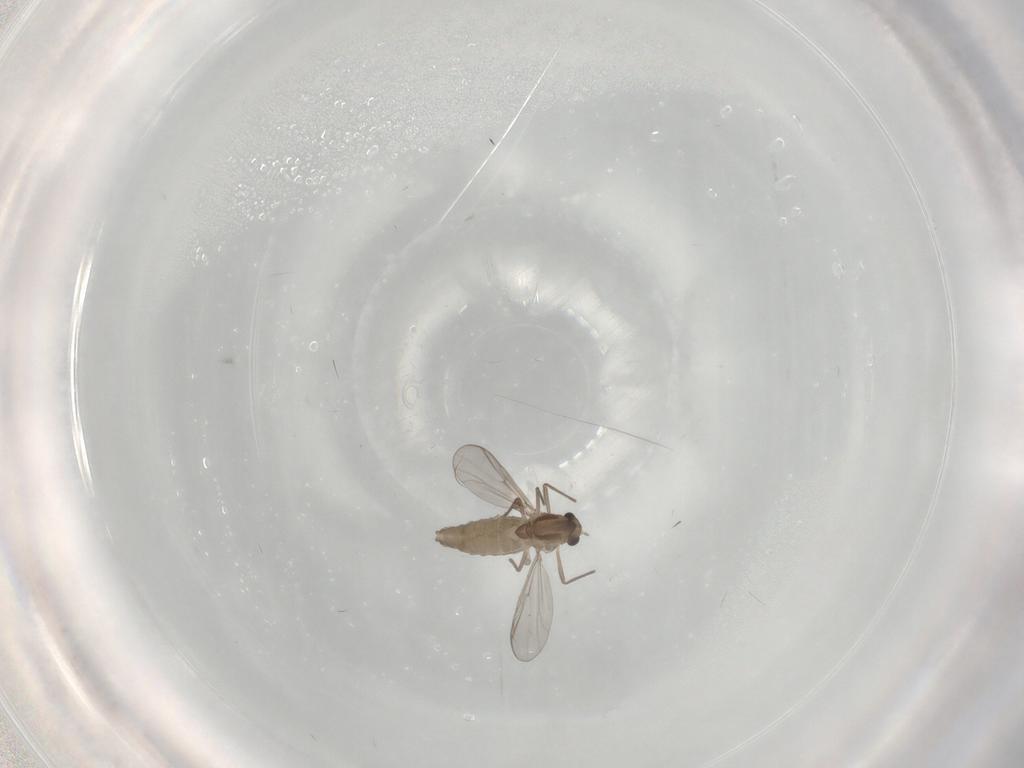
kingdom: Animalia
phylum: Arthropoda
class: Insecta
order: Diptera
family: Chironomidae
